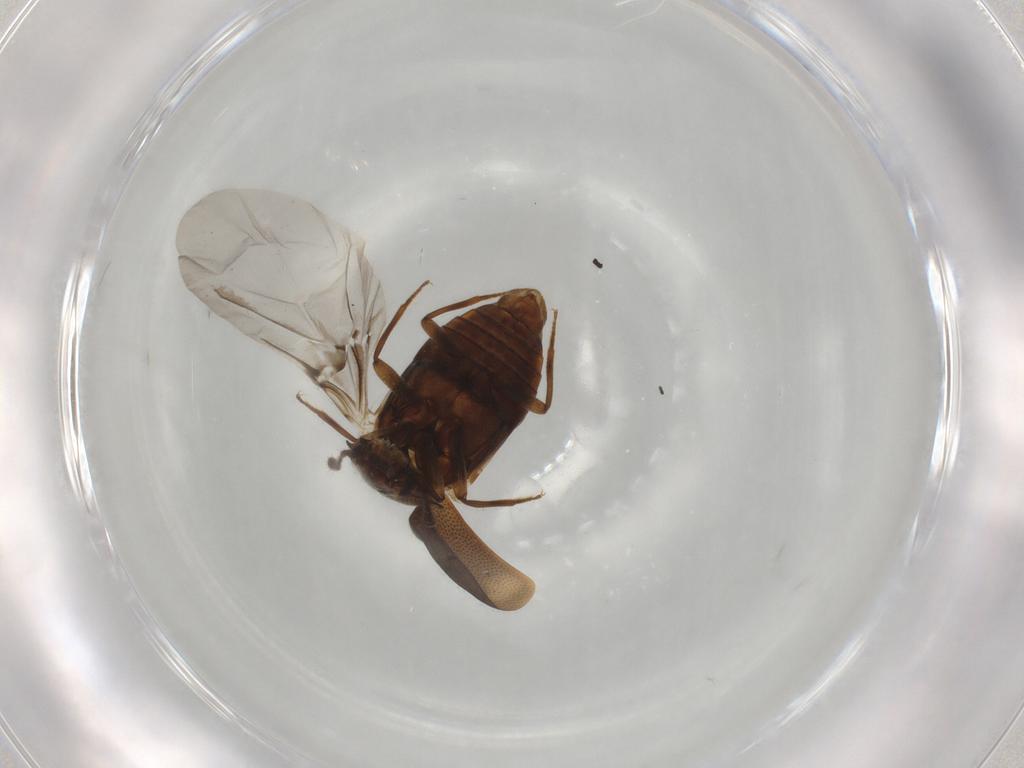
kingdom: Animalia
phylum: Arthropoda
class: Insecta
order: Coleoptera
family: Staphylinidae
